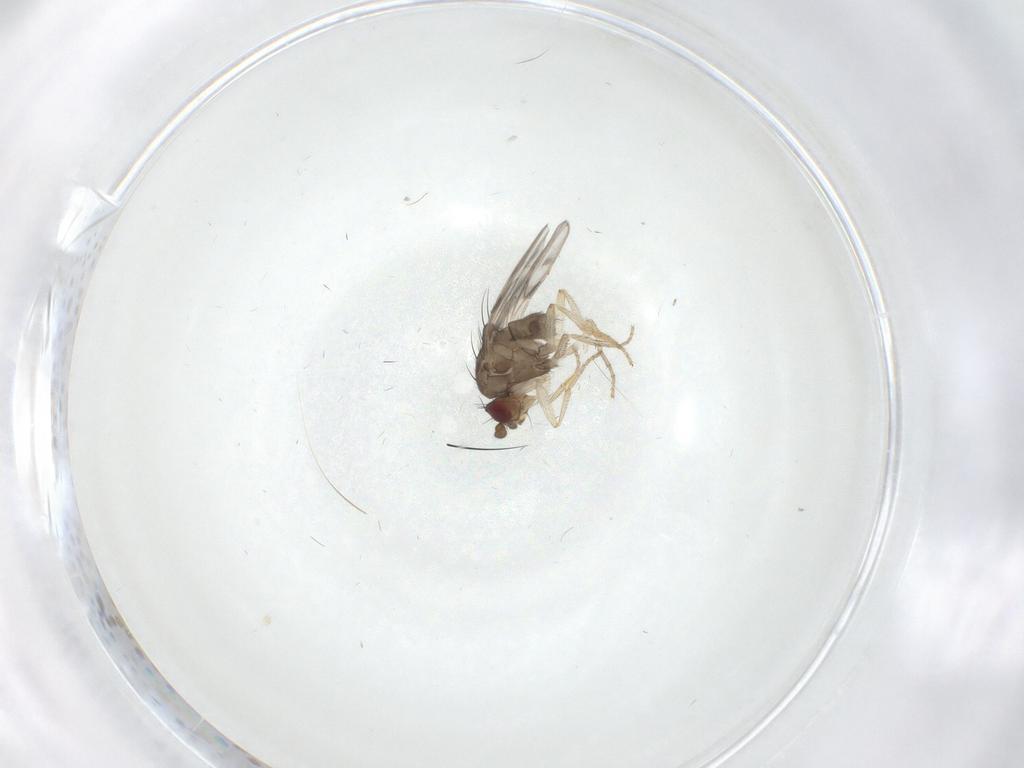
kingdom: Animalia
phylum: Arthropoda
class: Insecta
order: Diptera
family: Sphaeroceridae
